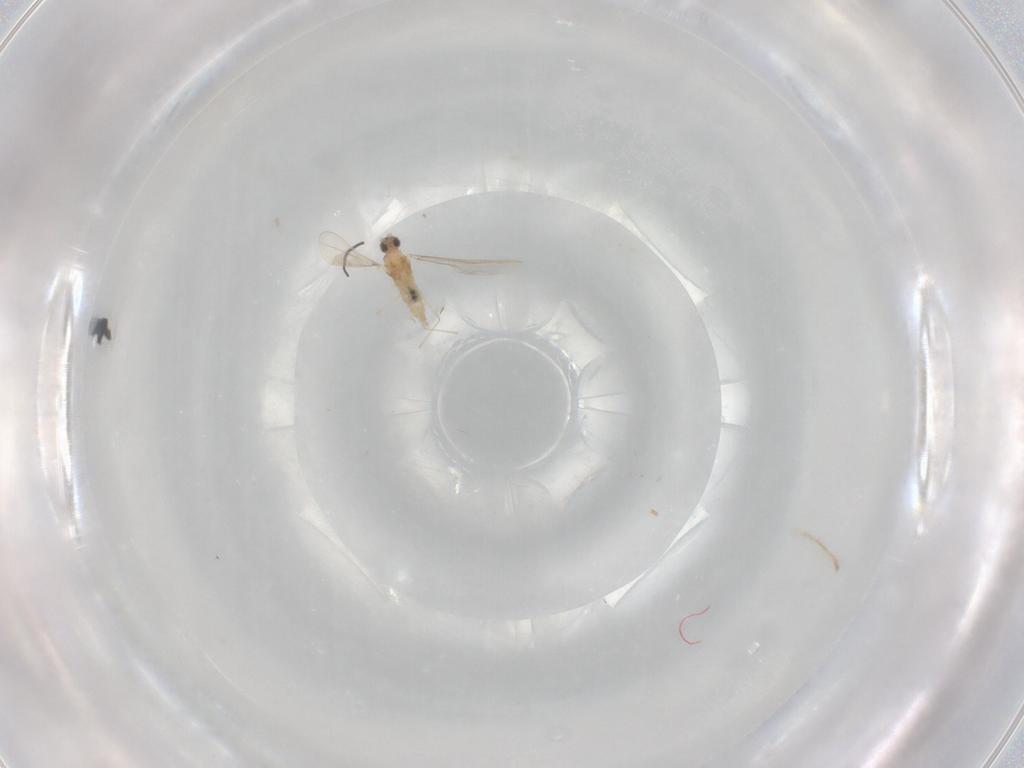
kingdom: Animalia
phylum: Arthropoda
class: Insecta
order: Diptera
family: Cecidomyiidae
